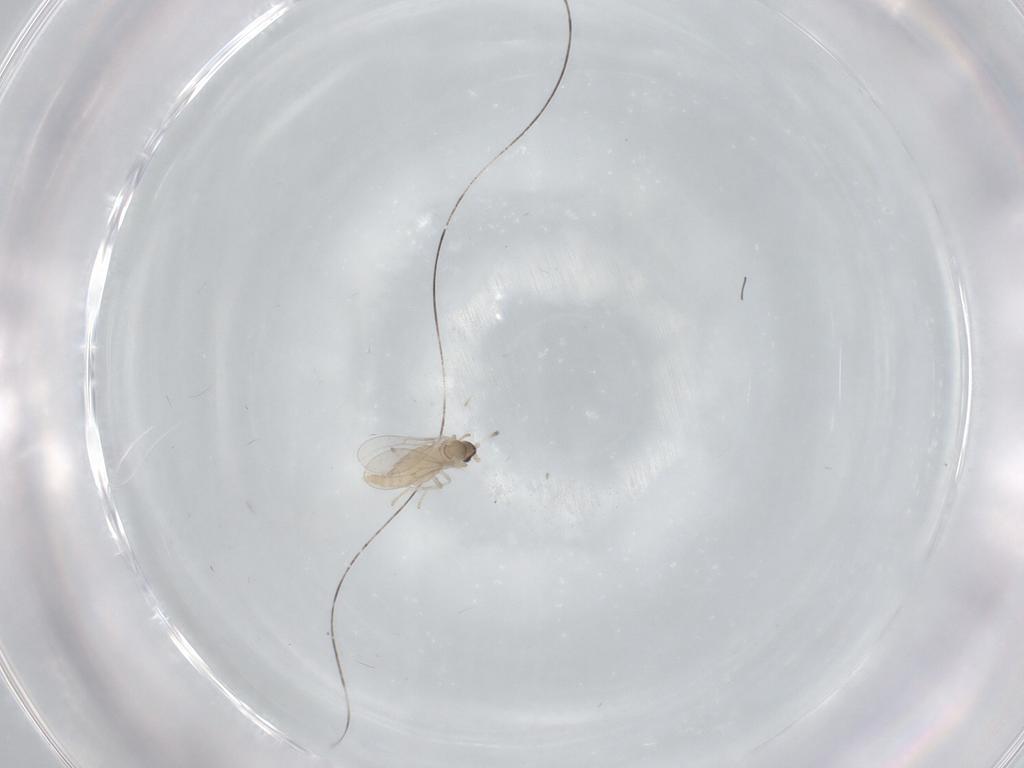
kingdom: Animalia
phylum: Arthropoda
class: Insecta
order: Diptera
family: Cecidomyiidae
